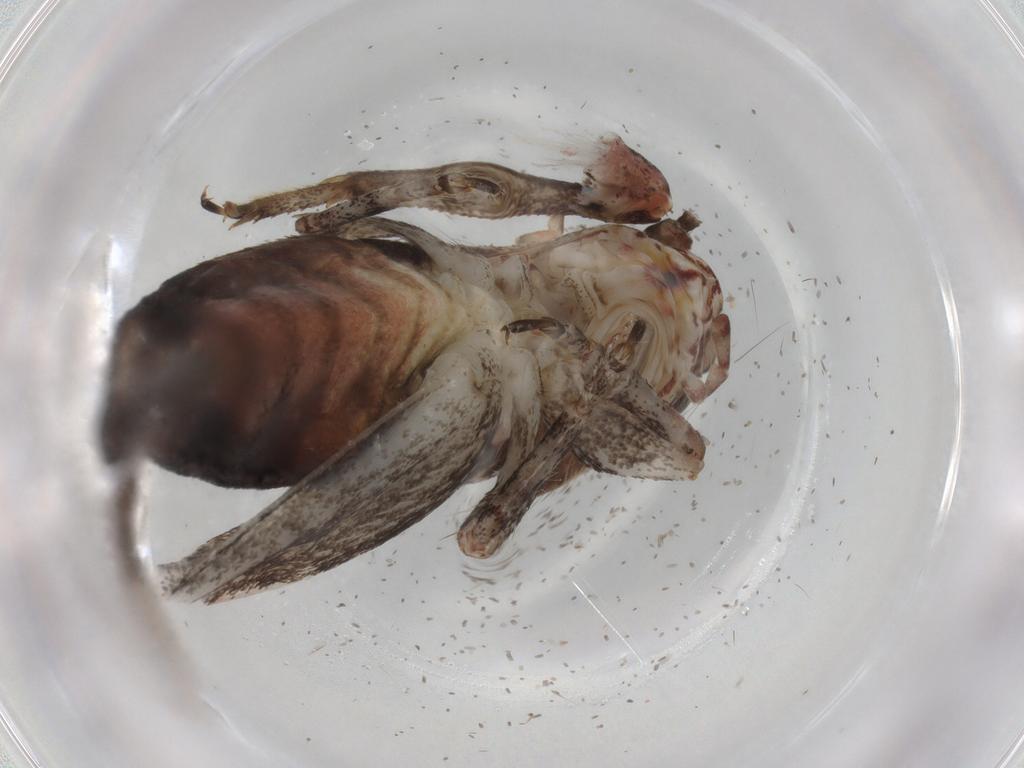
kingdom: Animalia
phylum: Arthropoda
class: Insecta
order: Orthoptera
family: Gryllidae
